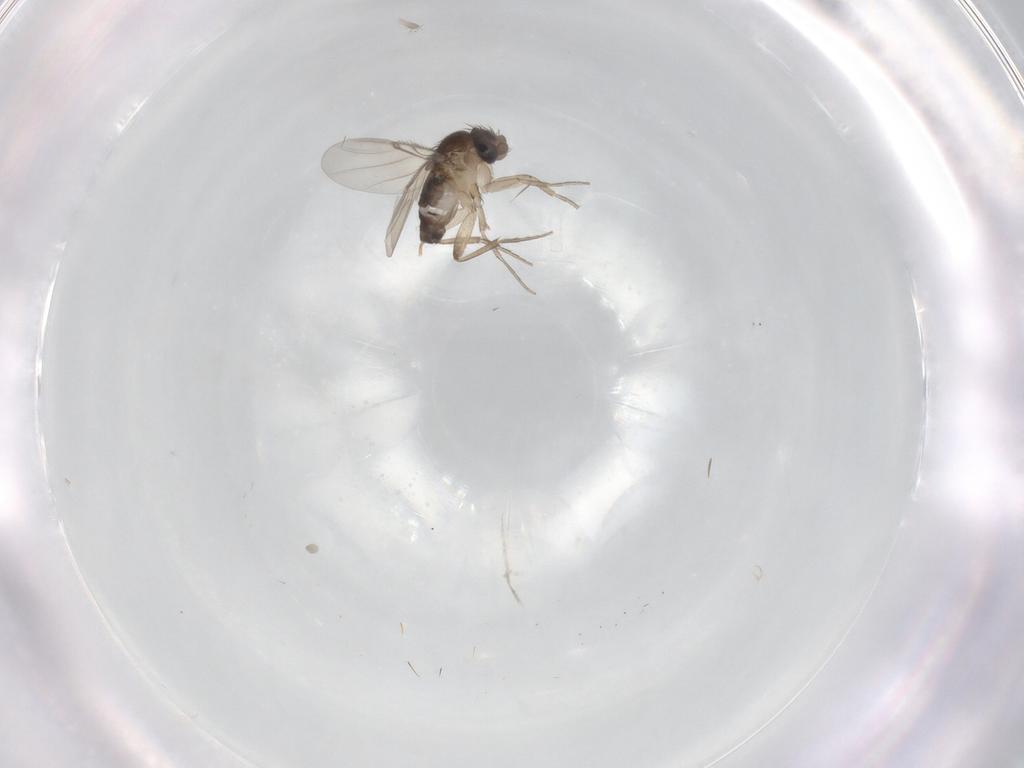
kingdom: Animalia
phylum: Arthropoda
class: Insecta
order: Diptera
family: Phoridae
